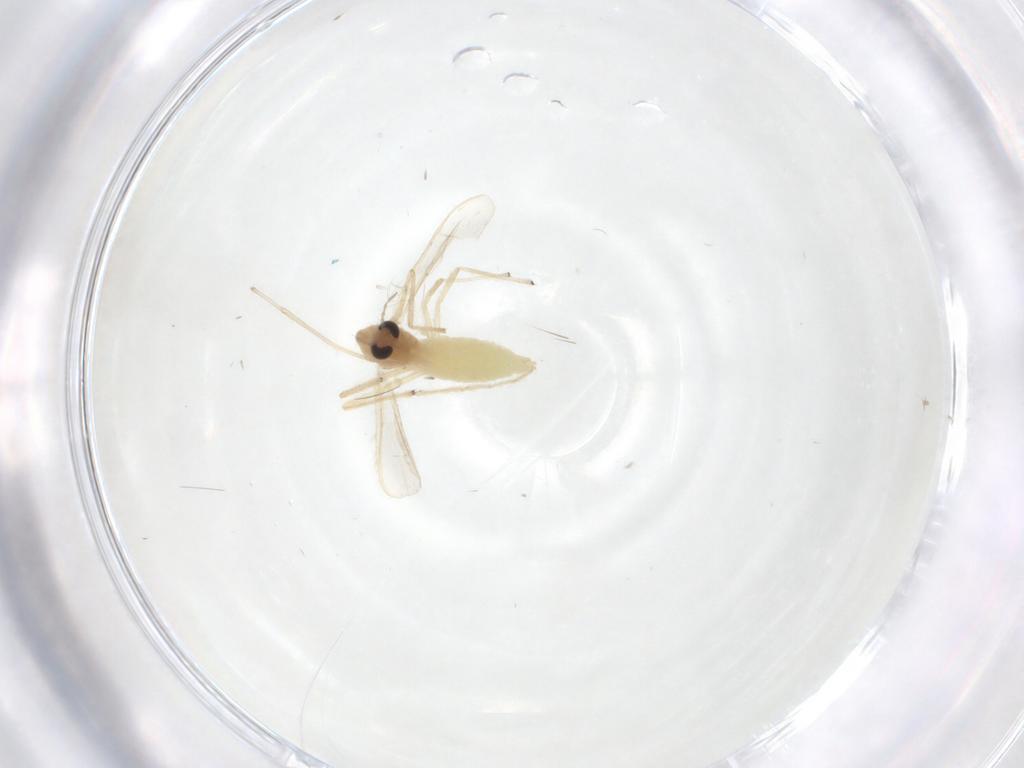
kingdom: Animalia
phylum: Arthropoda
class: Insecta
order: Diptera
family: Chironomidae
